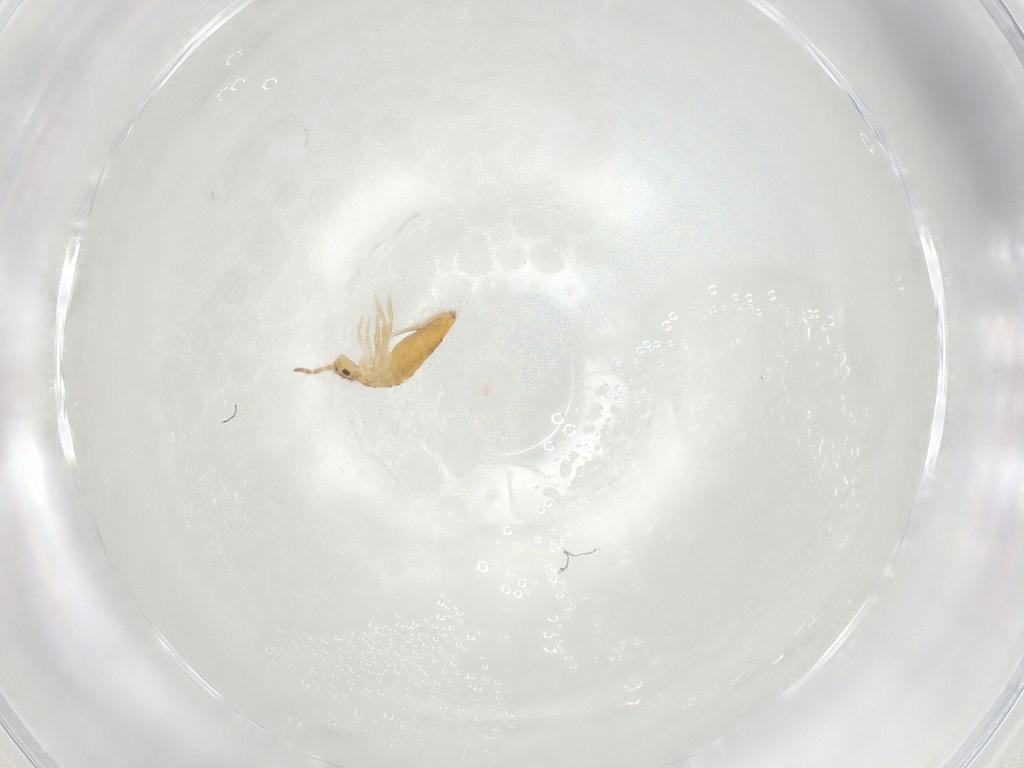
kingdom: Animalia
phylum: Arthropoda
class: Collembola
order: Entomobryomorpha
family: Entomobryidae
